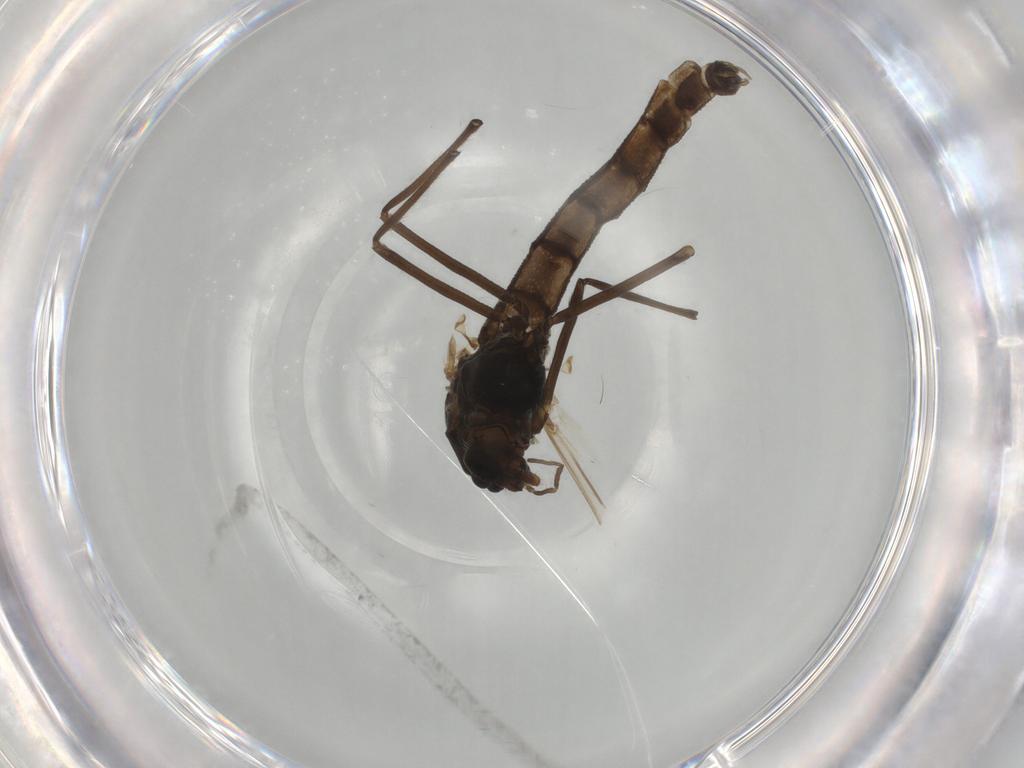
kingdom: Animalia
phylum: Arthropoda
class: Insecta
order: Diptera
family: Chironomidae
